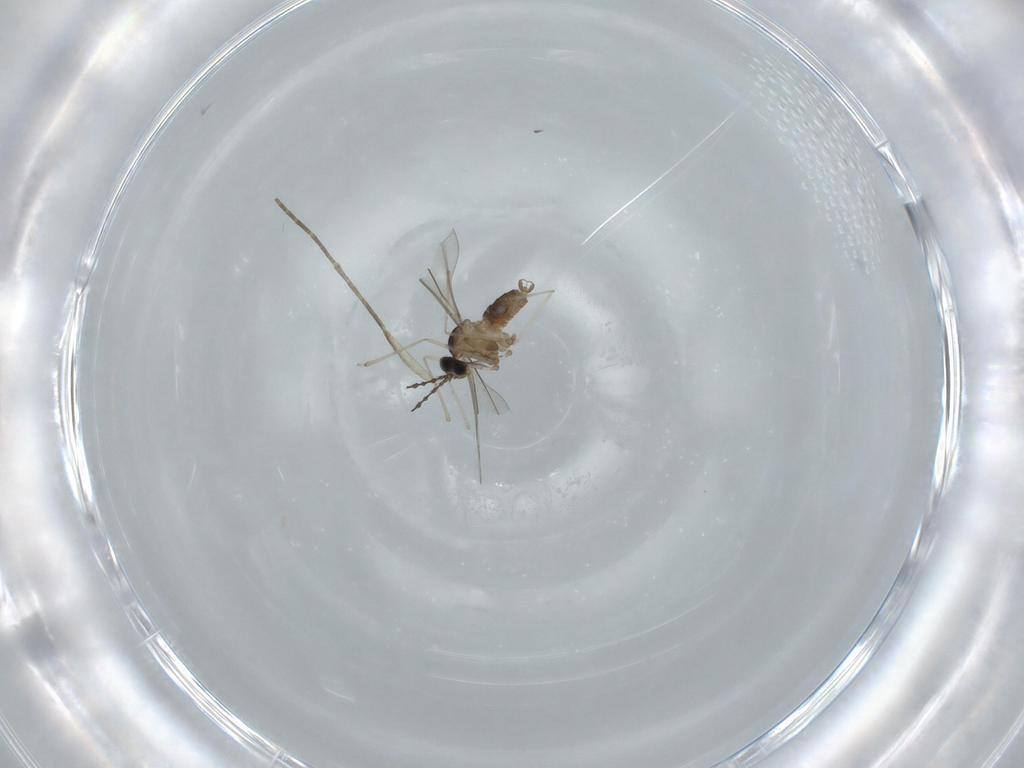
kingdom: Animalia
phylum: Arthropoda
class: Insecta
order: Diptera
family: Cecidomyiidae
